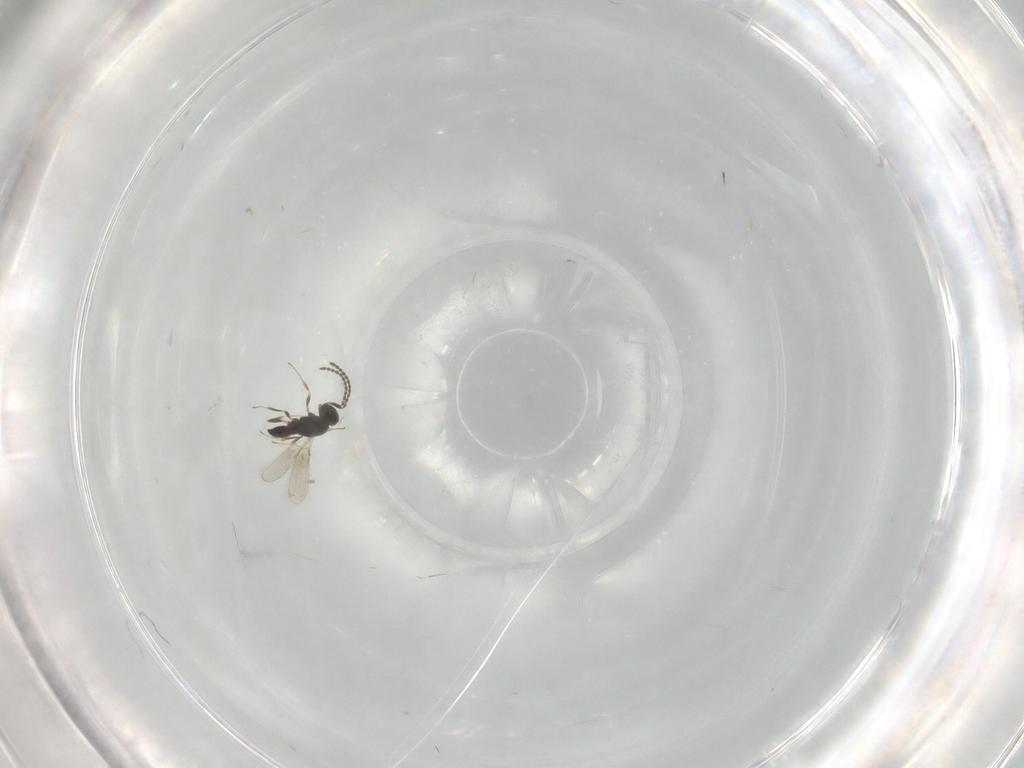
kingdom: Animalia
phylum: Arthropoda
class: Insecta
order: Hymenoptera
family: Scelionidae
